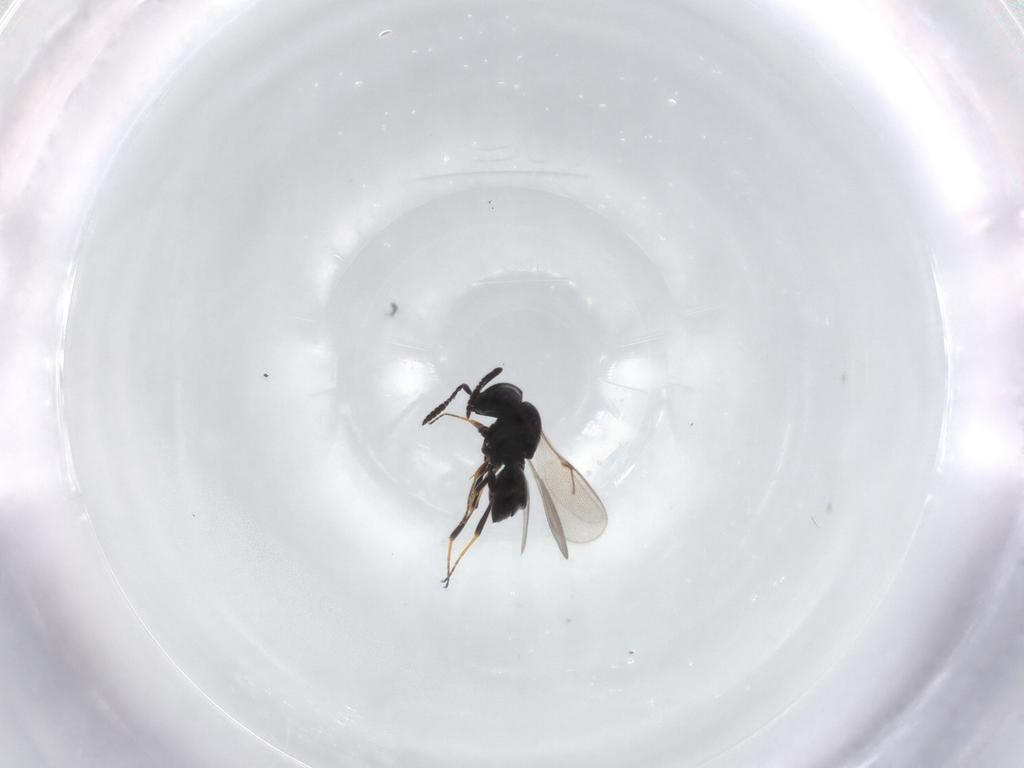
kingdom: Animalia
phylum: Arthropoda
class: Insecta
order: Hymenoptera
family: Scelionidae
